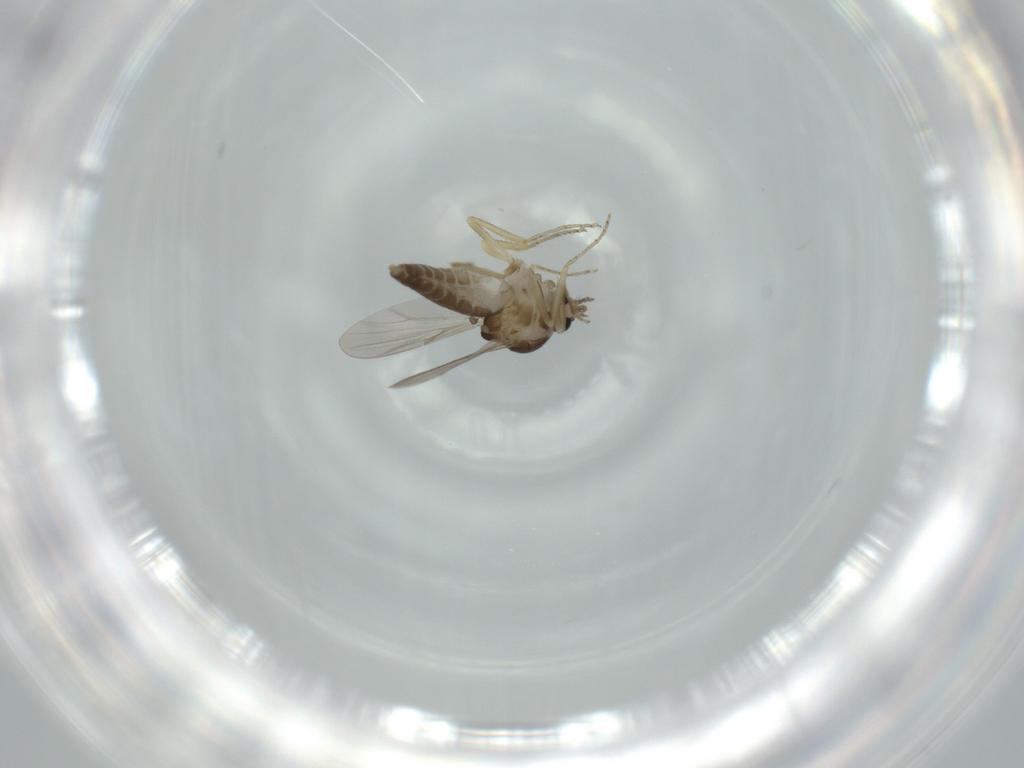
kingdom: Animalia
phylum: Arthropoda
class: Insecta
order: Diptera
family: Ceratopogonidae
